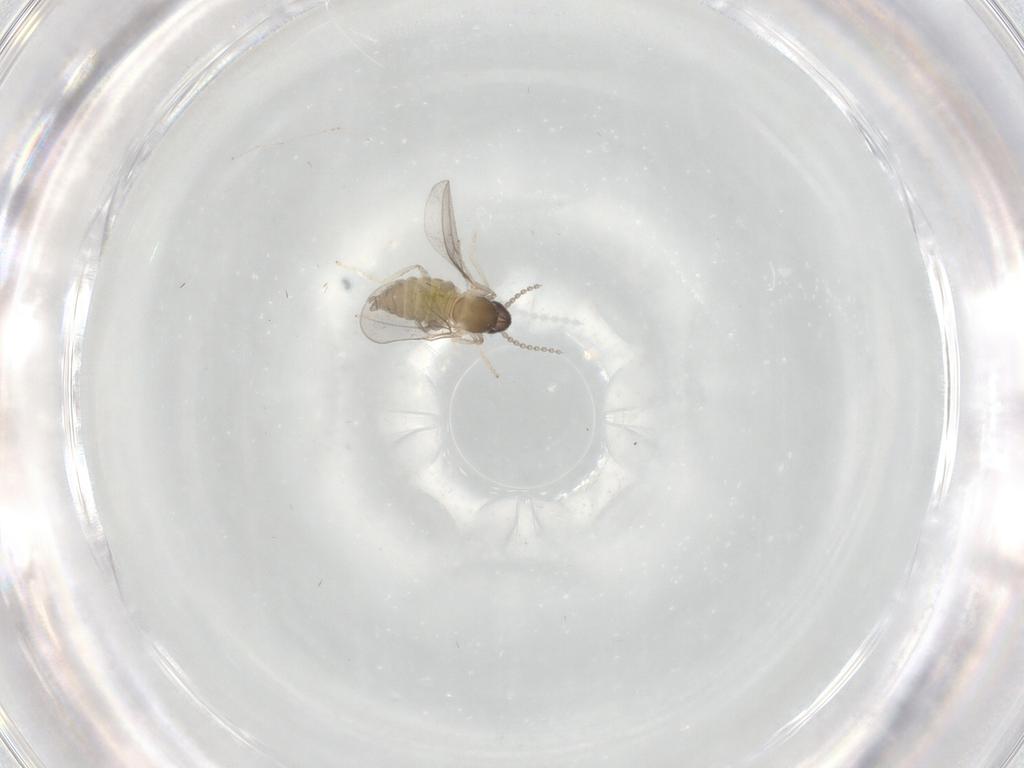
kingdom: Animalia
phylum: Arthropoda
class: Insecta
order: Diptera
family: Cecidomyiidae
